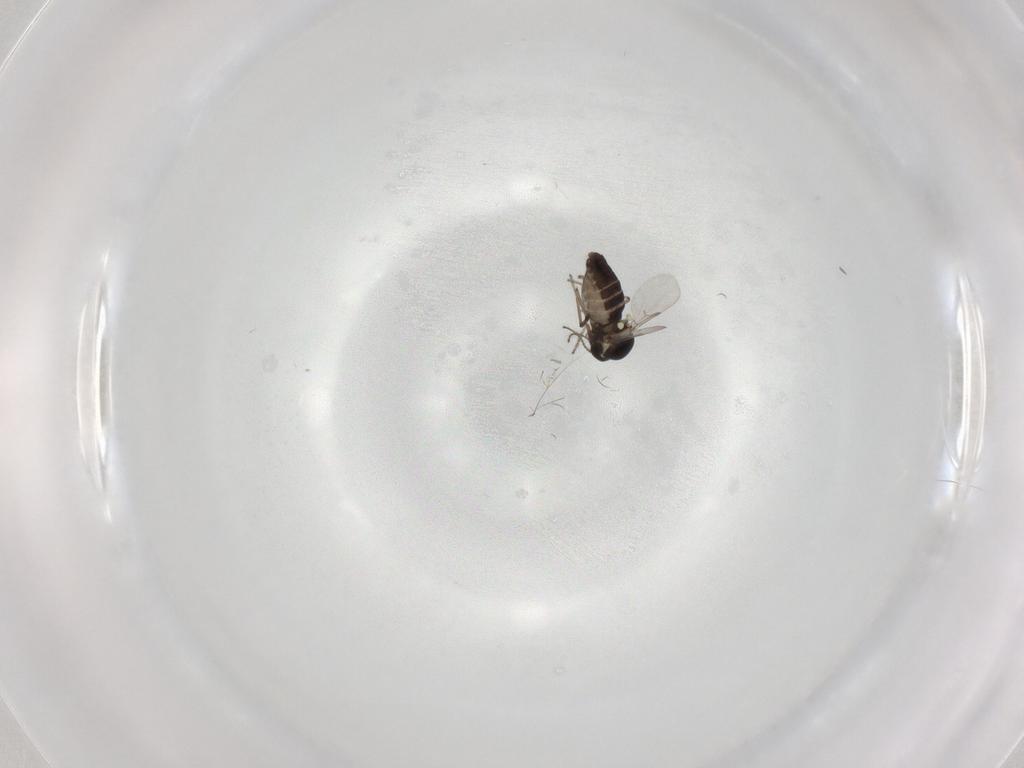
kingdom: Animalia
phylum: Arthropoda
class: Insecta
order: Diptera
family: Ceratopogonidae
